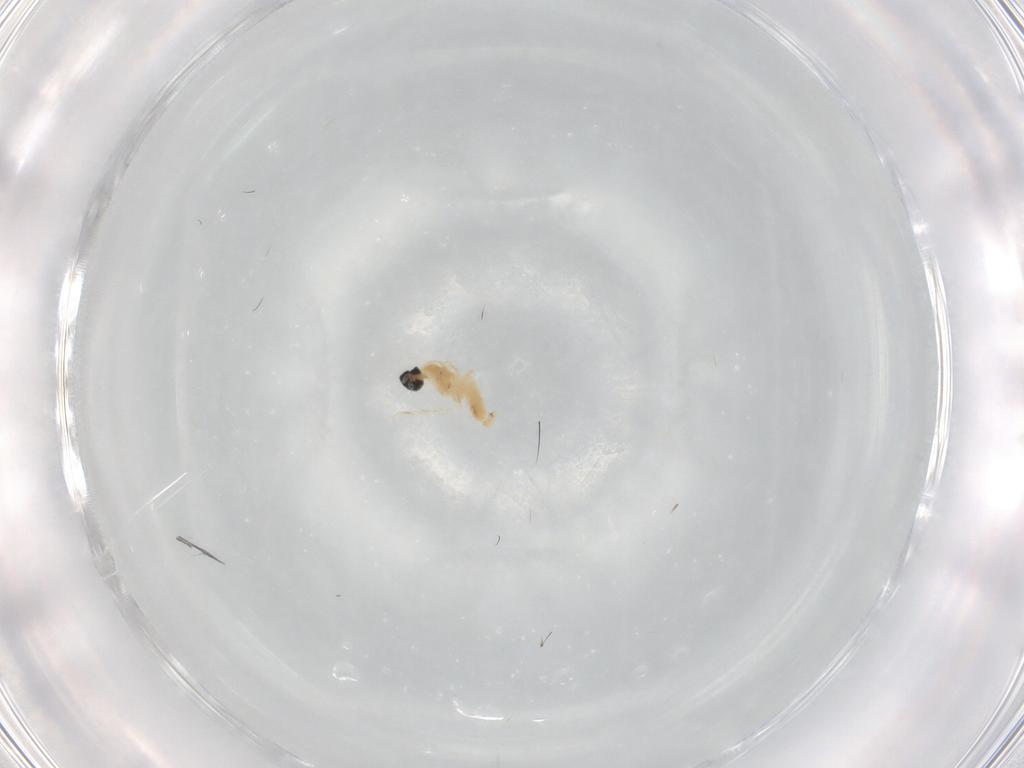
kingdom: Animalia
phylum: Arthropoda
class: Insecta
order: Diptera
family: Cecidomyiidae
